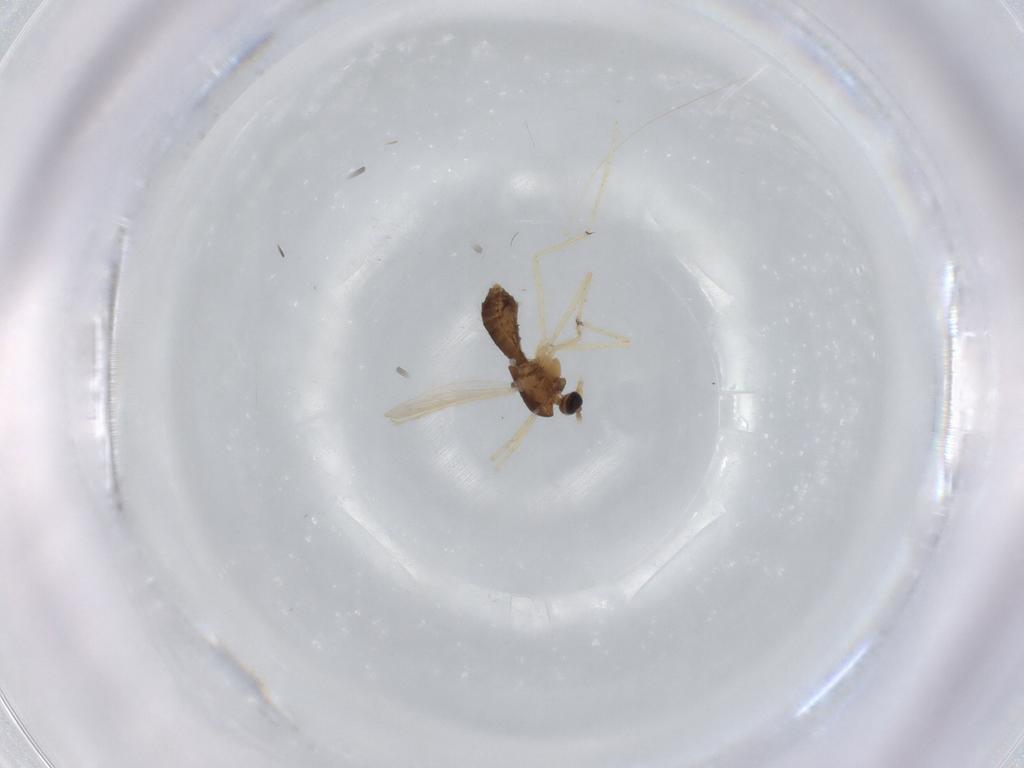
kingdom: Animalia
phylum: Arthropoda
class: Insecta
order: Diptera
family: Chironomidae
